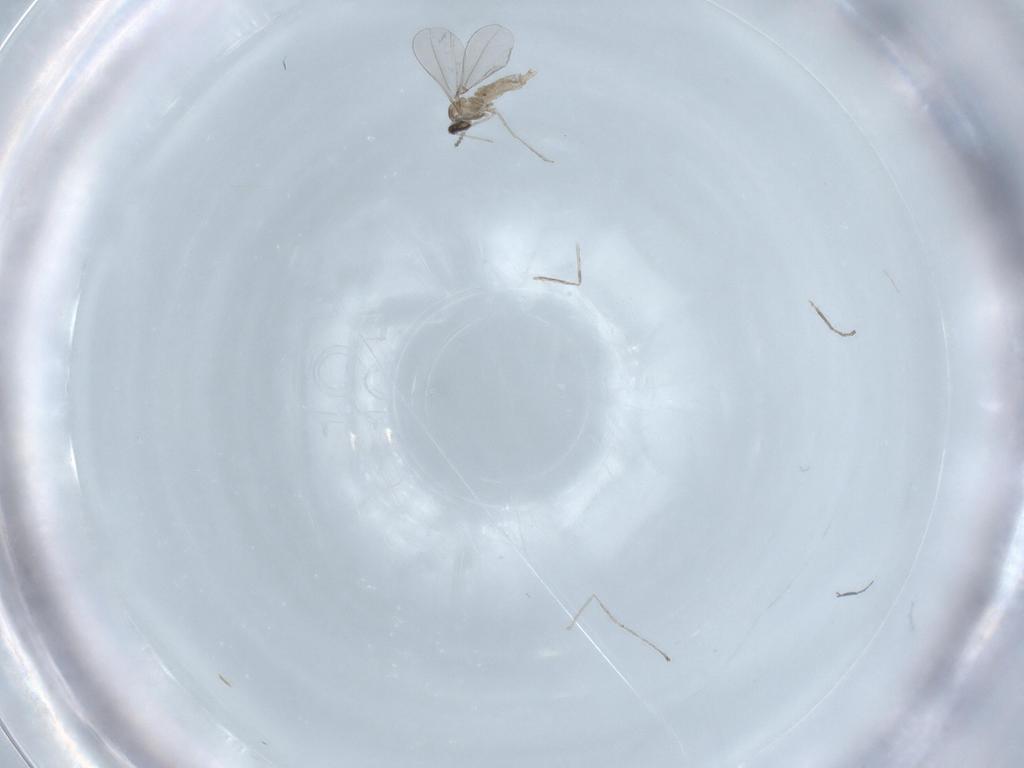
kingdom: Animalia
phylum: Arthropoda
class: Insecta
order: Diptera
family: Cecidomyiidae
